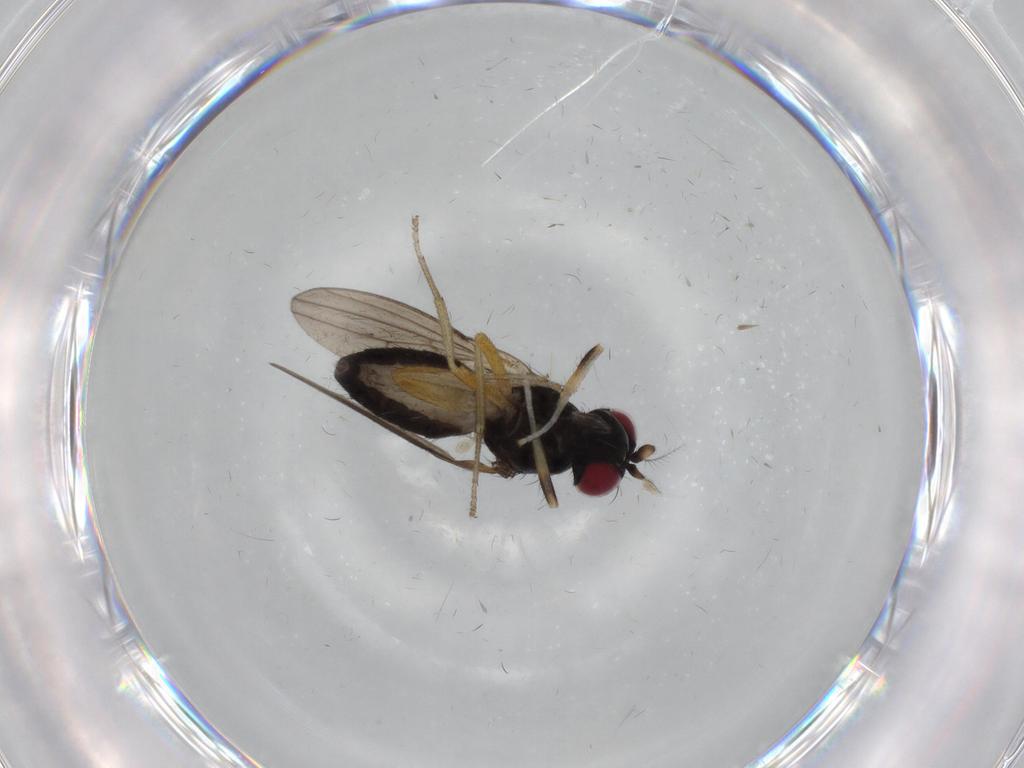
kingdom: Animalia
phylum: Arthropoda
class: Insecta
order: Diptera
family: Lauxaniidae
